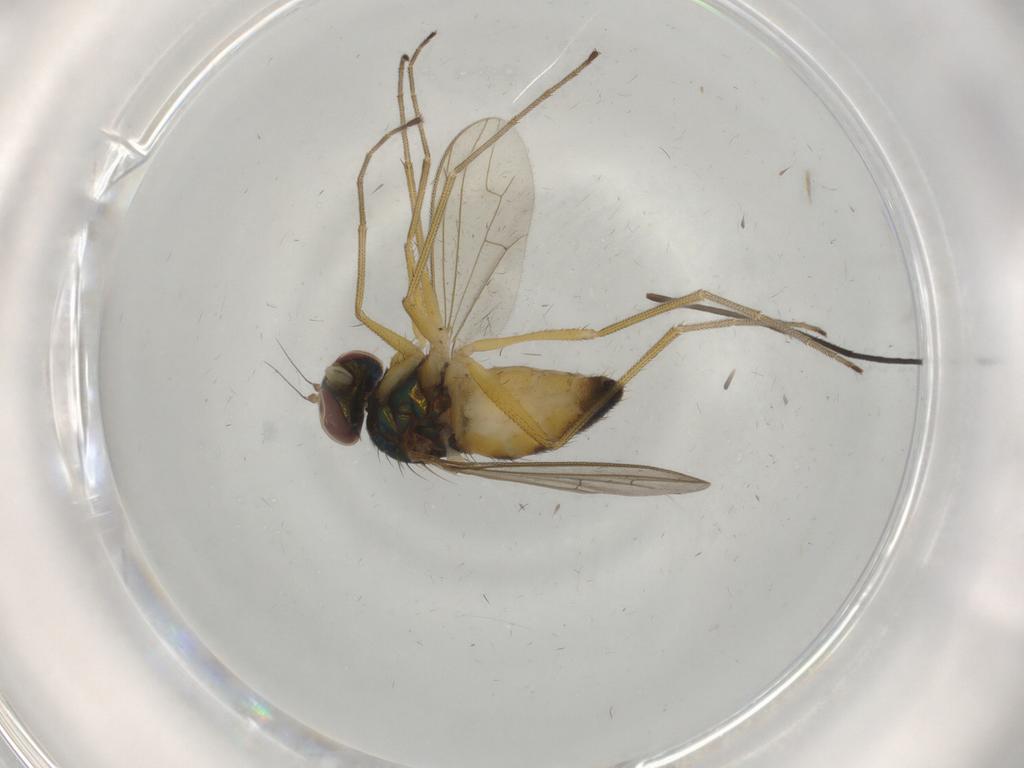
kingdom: Animalia
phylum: Arthropoda
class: Insecta
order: Diptera
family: Dolichopodidae
